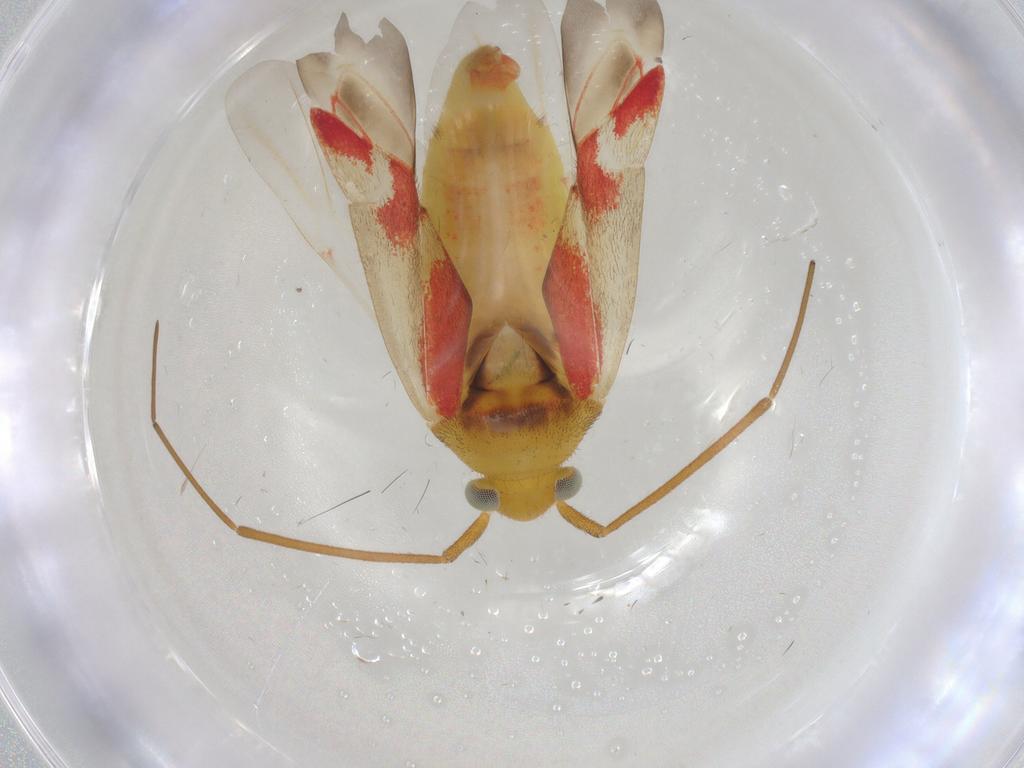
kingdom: Animalia
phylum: Arthropoda
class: Insecta
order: Hemiptera
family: Miridae
